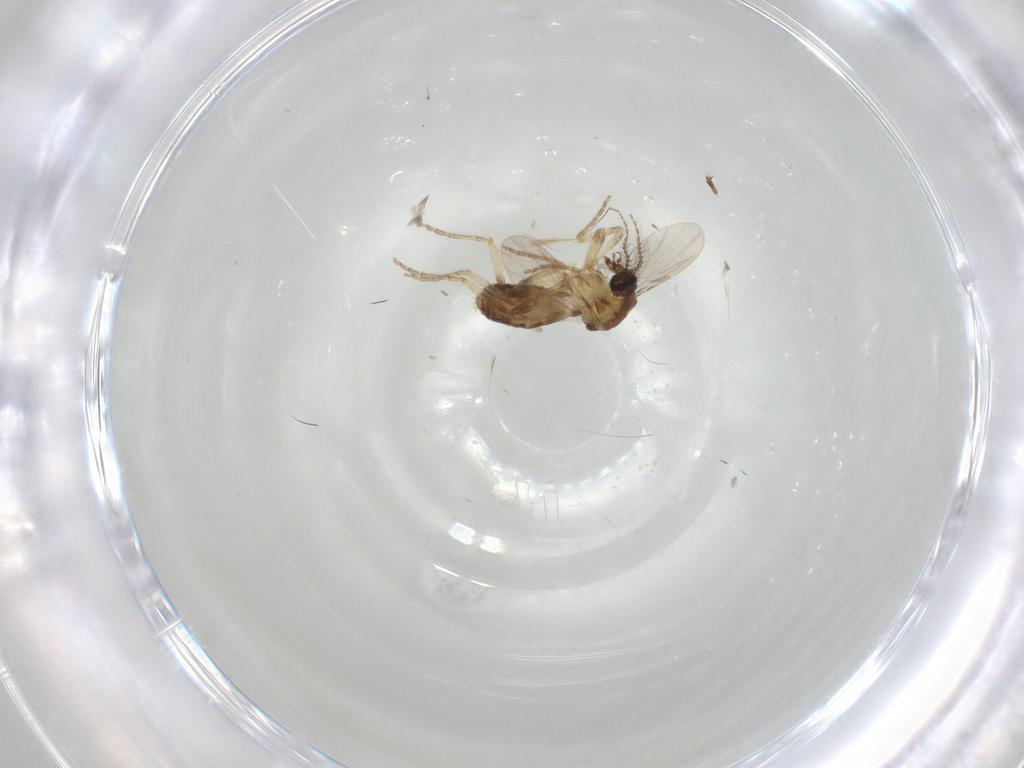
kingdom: Animalia
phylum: Arthropoda
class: Insecta
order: Diptera
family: Ceratopogonidae
